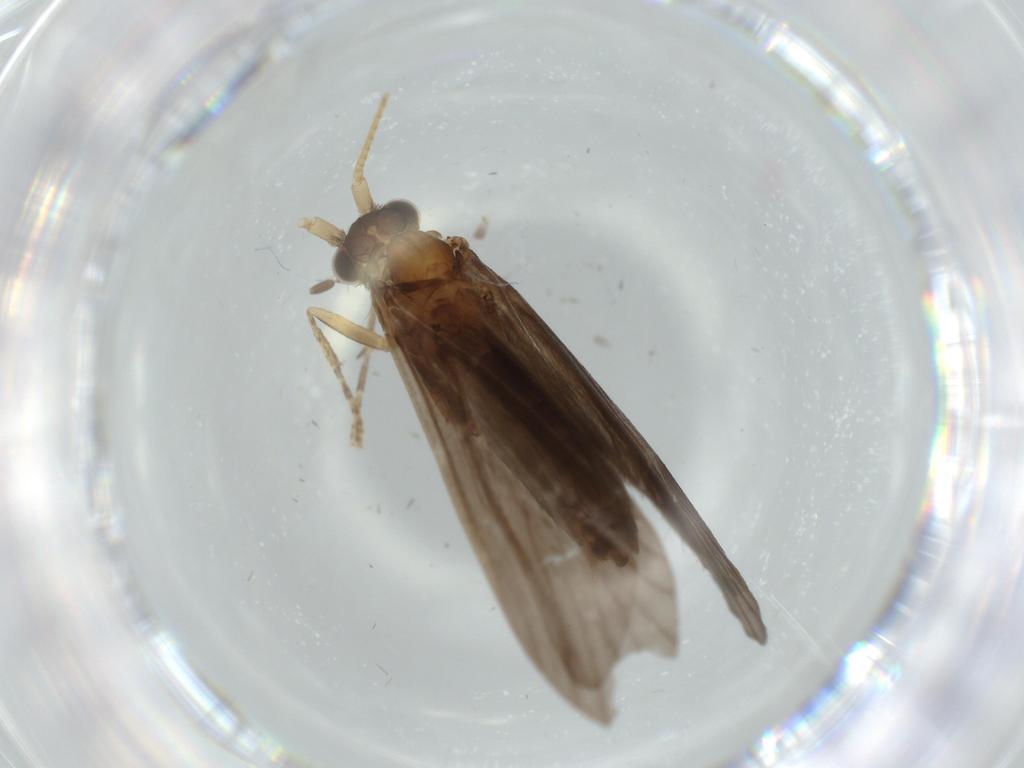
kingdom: Animalia
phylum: Arthropoda
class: Insecta
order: Trichoptera
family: Helicopsychidae
